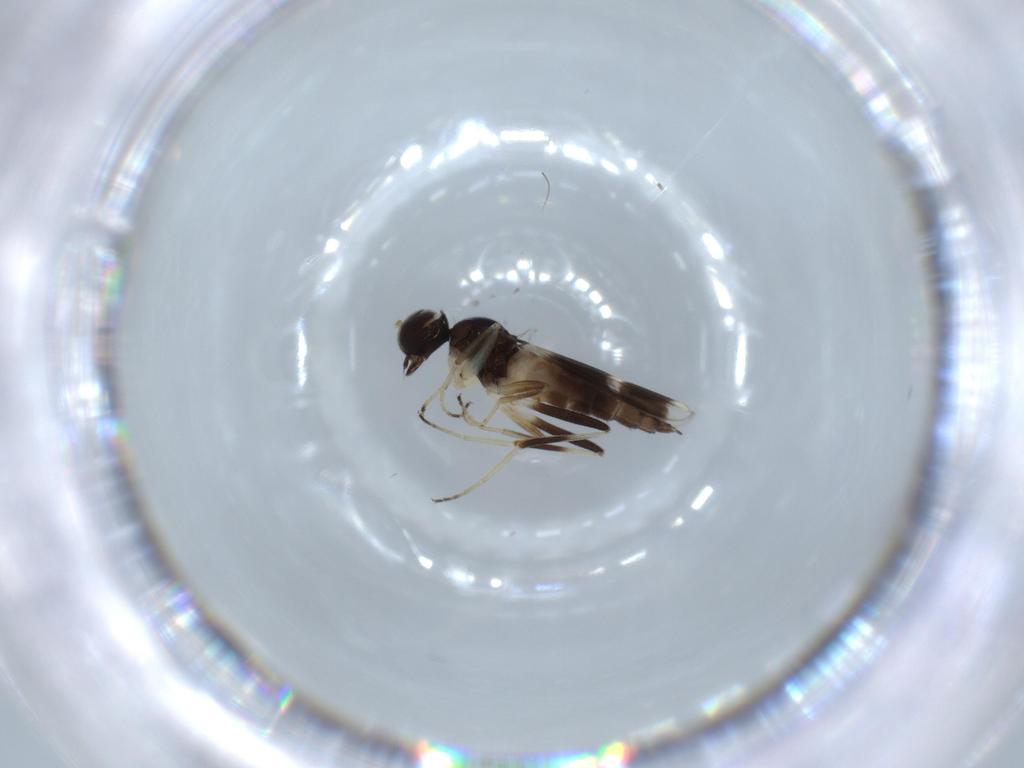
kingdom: Animalia
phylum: Arthropoda
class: Insecta
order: Diptera
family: Hybotidae
